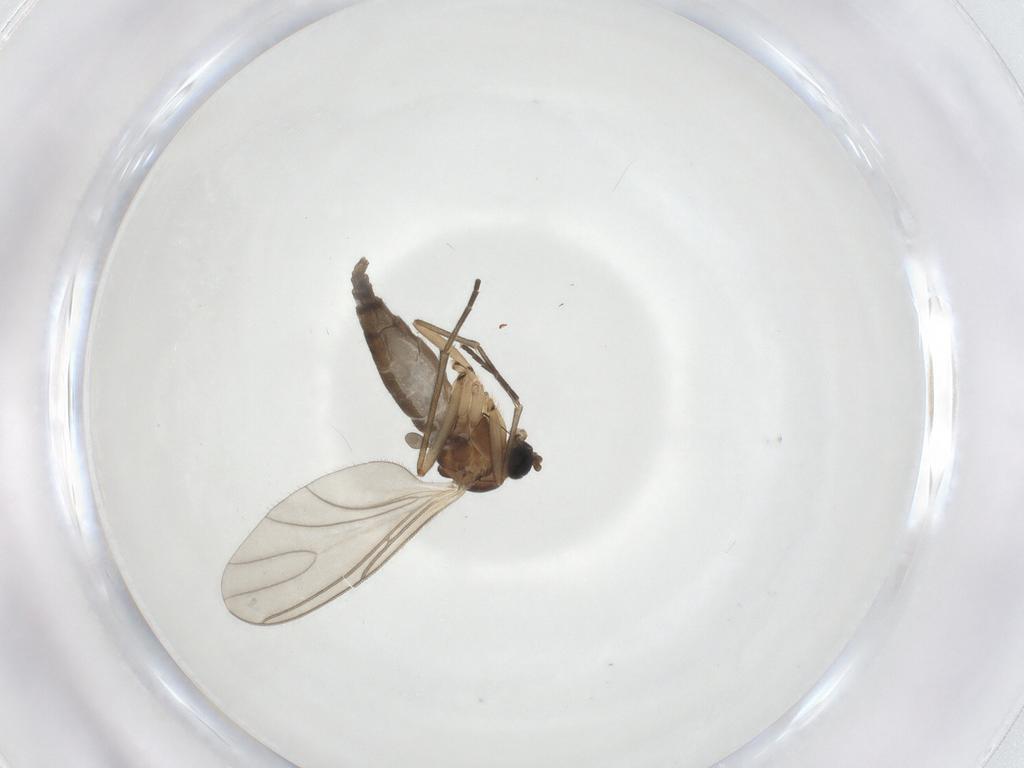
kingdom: Animalia
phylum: Arthropoda
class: Insecta
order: Diptera
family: Sciaridae
